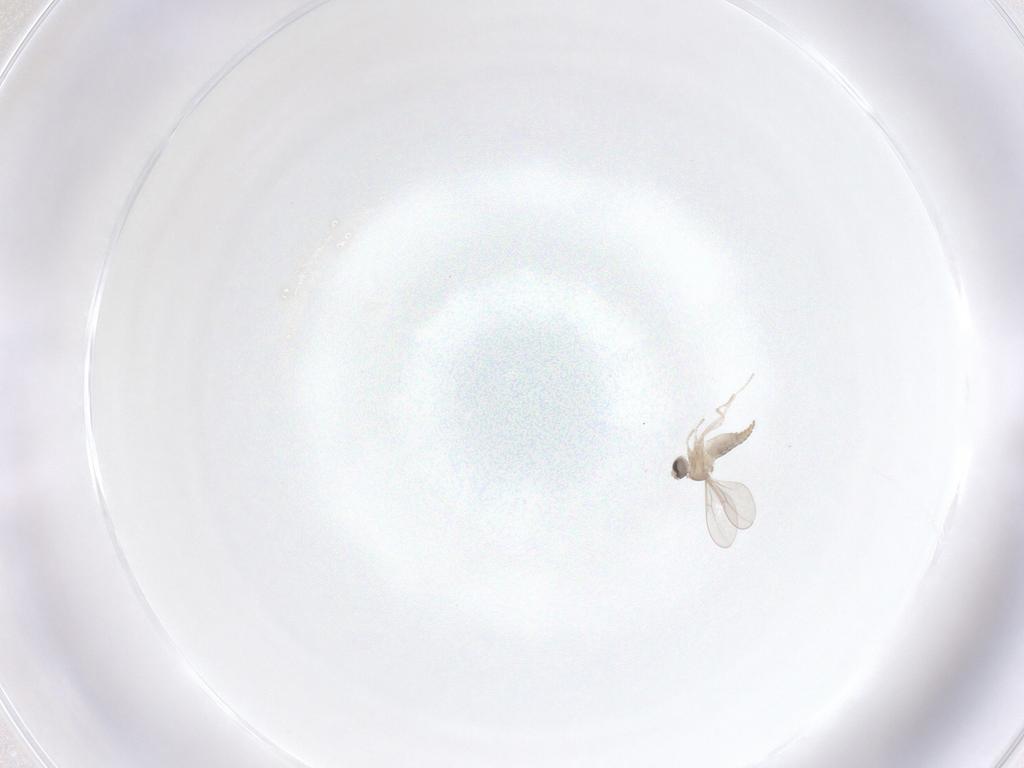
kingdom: Animalia
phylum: Arthropoda
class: Insecta
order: Diptera
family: Cecidomyiidae
